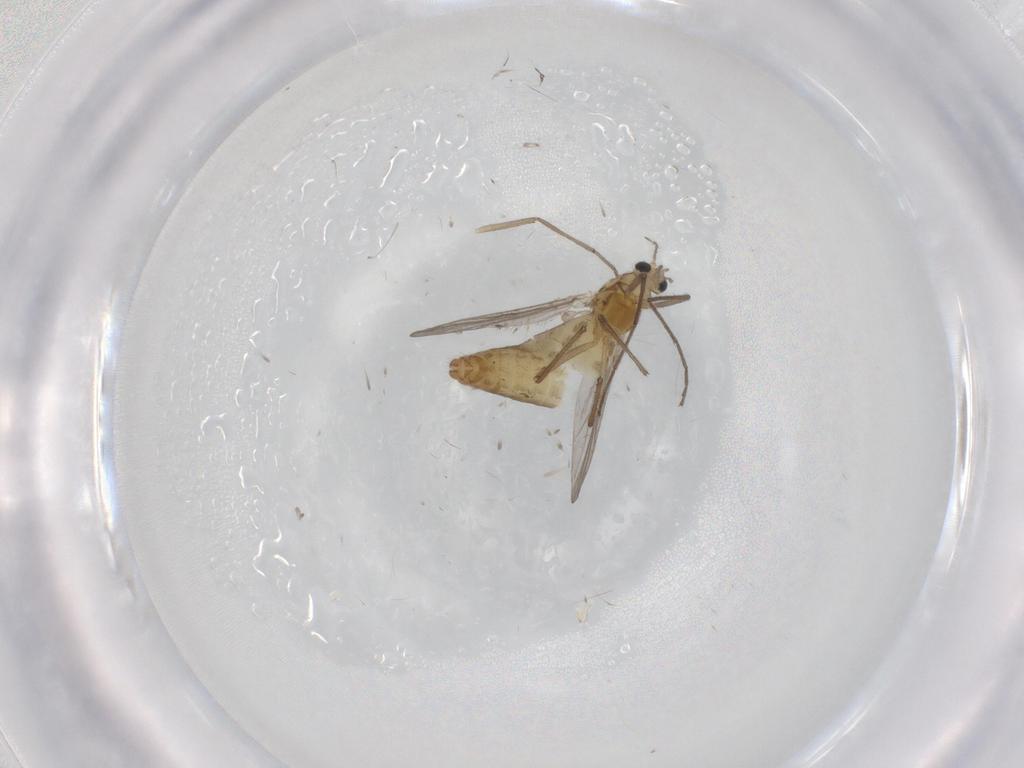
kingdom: Animalia
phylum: Arthropoda
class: Insecta
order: Diptera
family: Chironomidae
